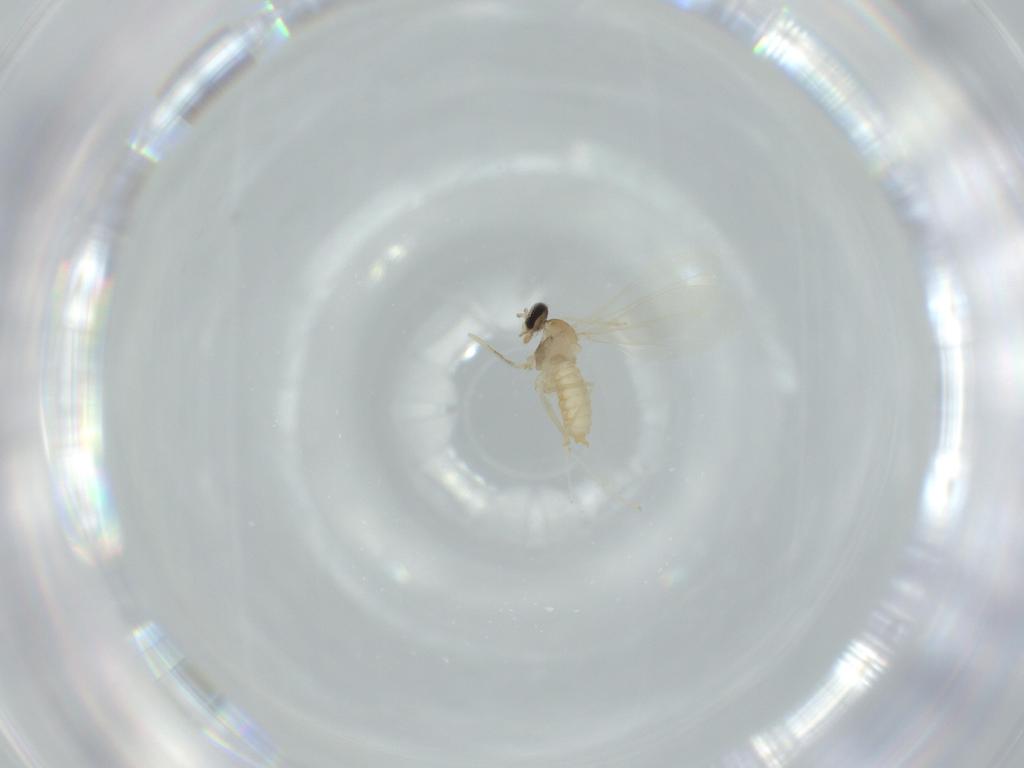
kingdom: Animalia
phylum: Arthropoda
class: Insecta
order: Diptera
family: Cecidomyiidae
